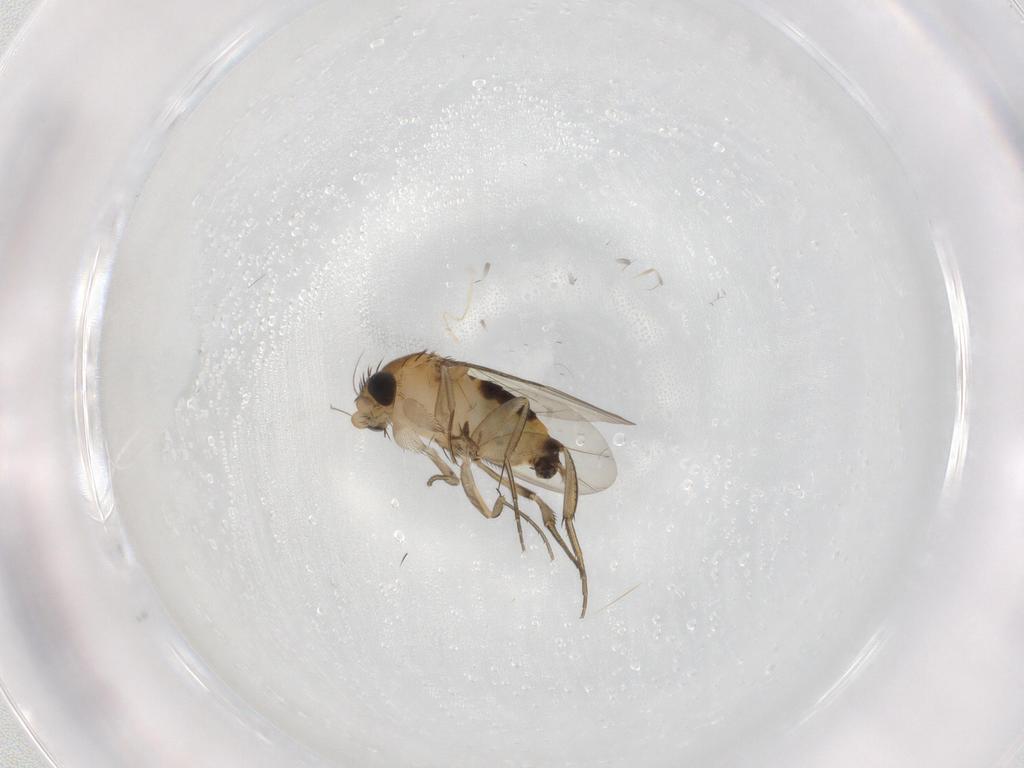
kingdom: Animalia
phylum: Arthropoda
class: Insecta
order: Diptera
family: Phoridae
